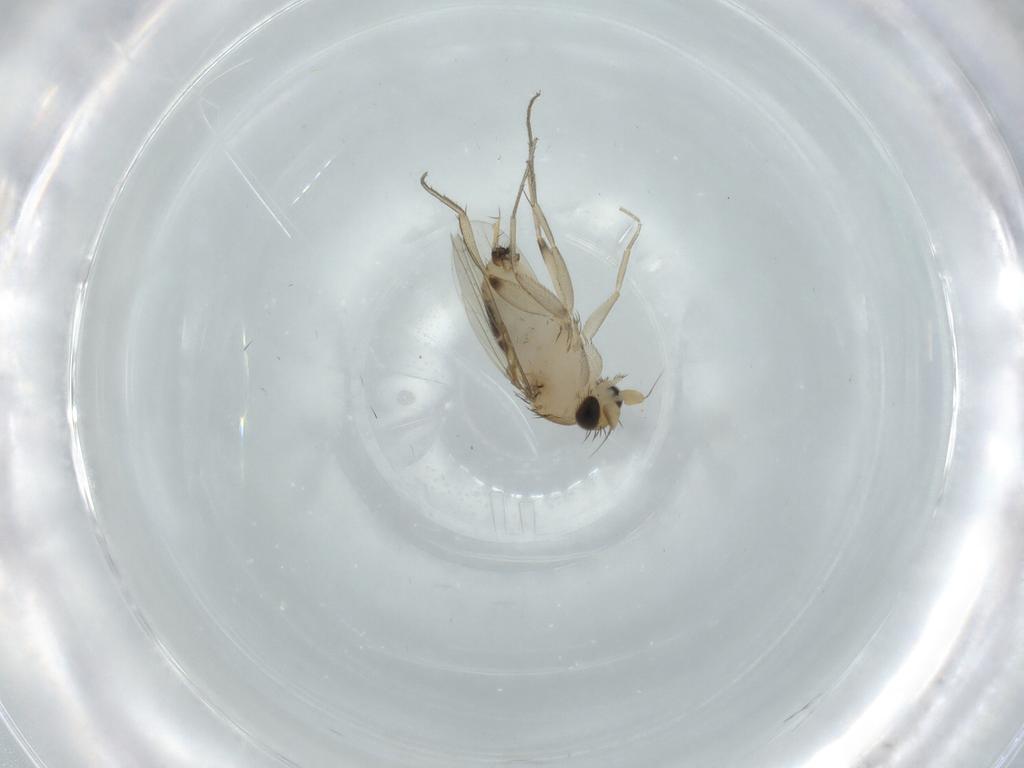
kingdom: Animalia
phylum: Arthropoda
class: Insecta
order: Diptera
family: Phoridae
